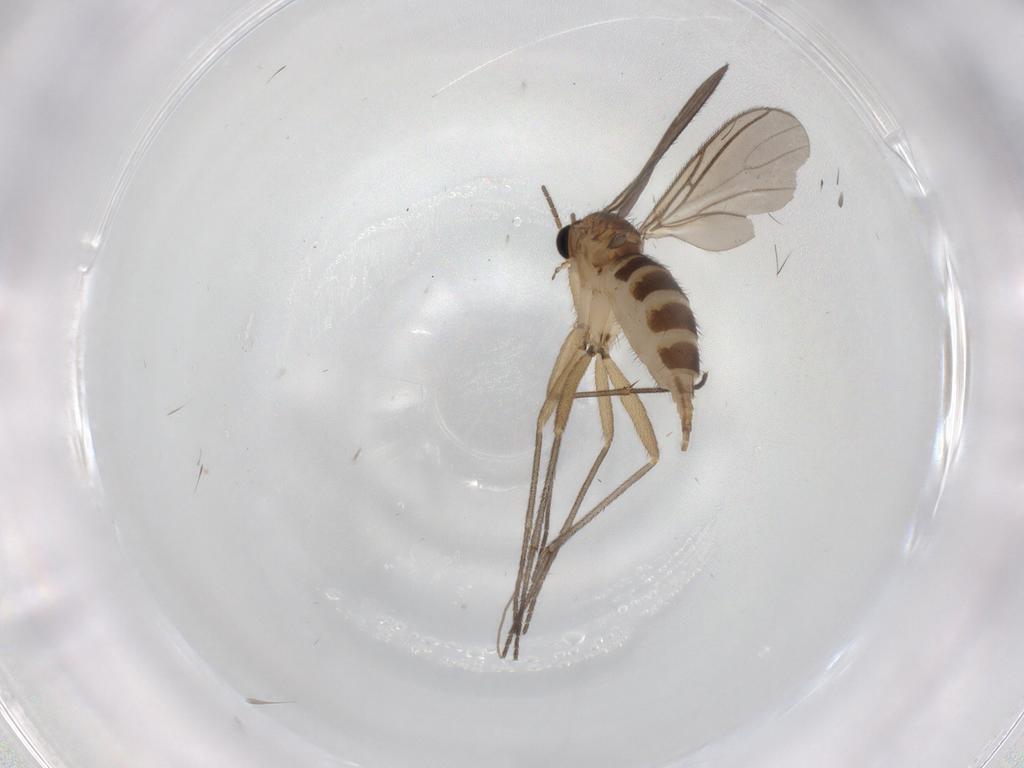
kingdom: Animalia
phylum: Arthropoda
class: Insecta
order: Diptera
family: Sciaridae
